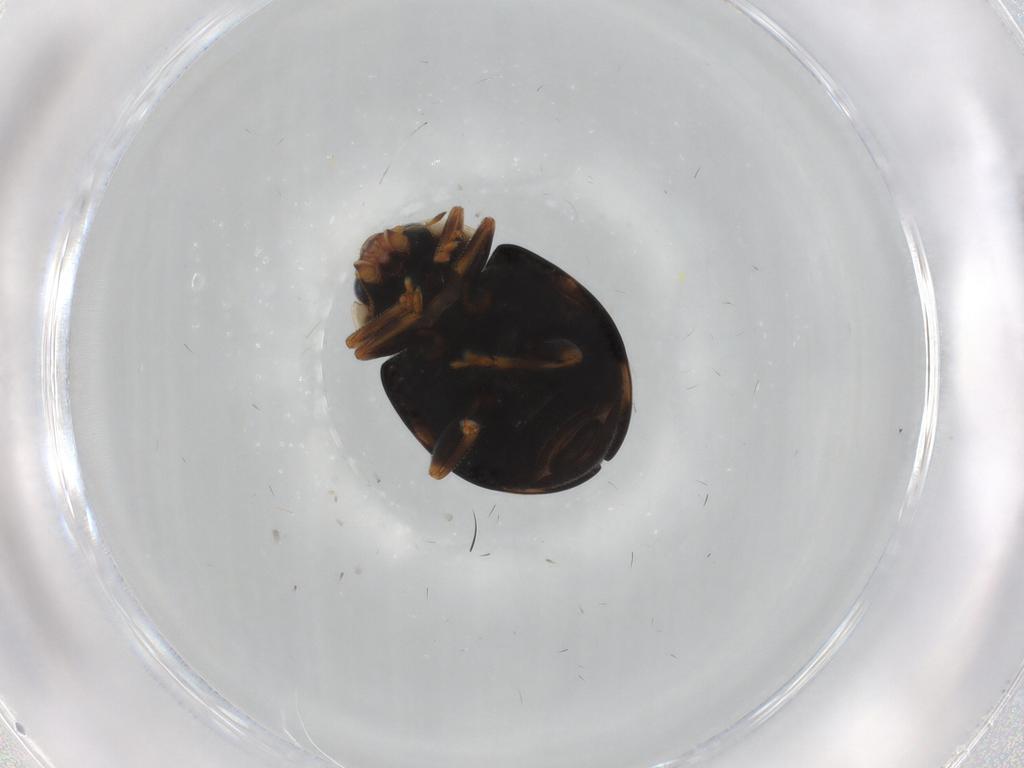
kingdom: Animalia
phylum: Arthropoda
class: Insecta
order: Coleoptera
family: Coccinellidae
